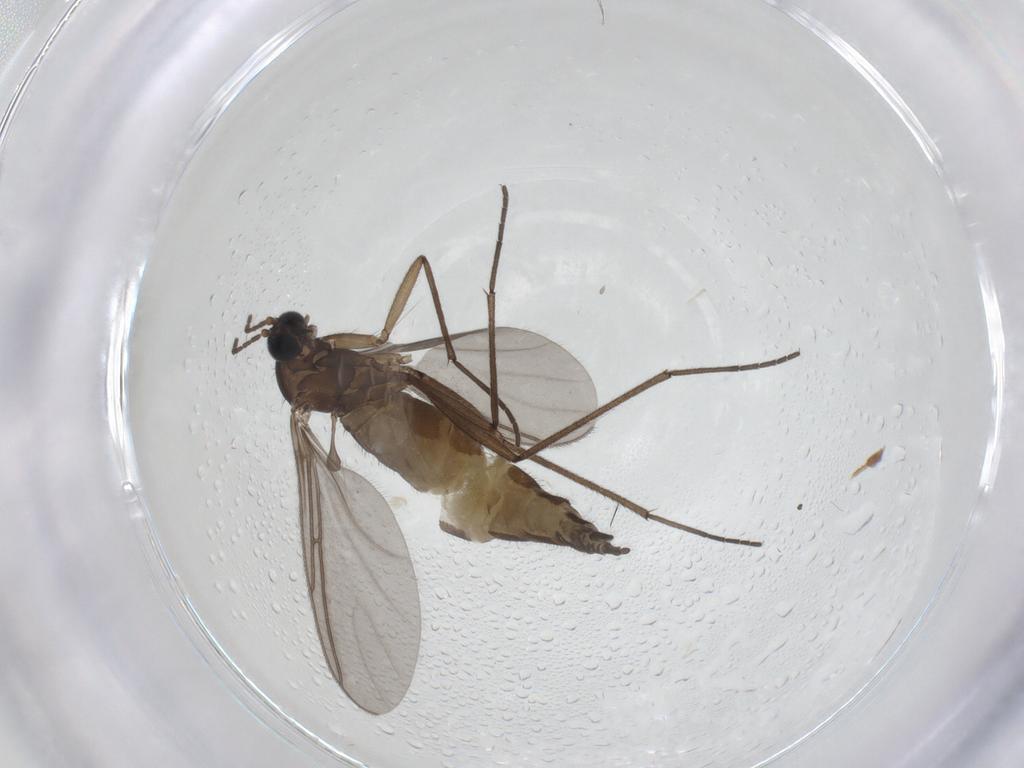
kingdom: Animalia
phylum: Arthropoda
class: Insecta
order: Diptera
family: Sciaridae
